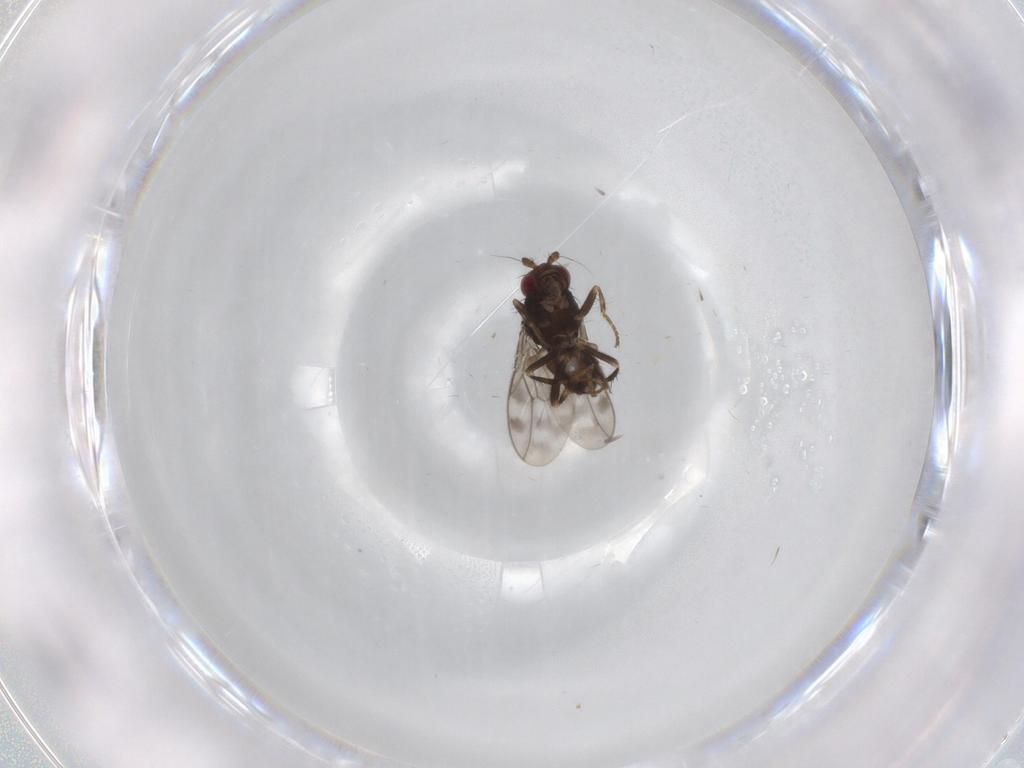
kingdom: Animalia
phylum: Arthropoda
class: Insecta
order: Diptera
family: Sphaeroceridae
